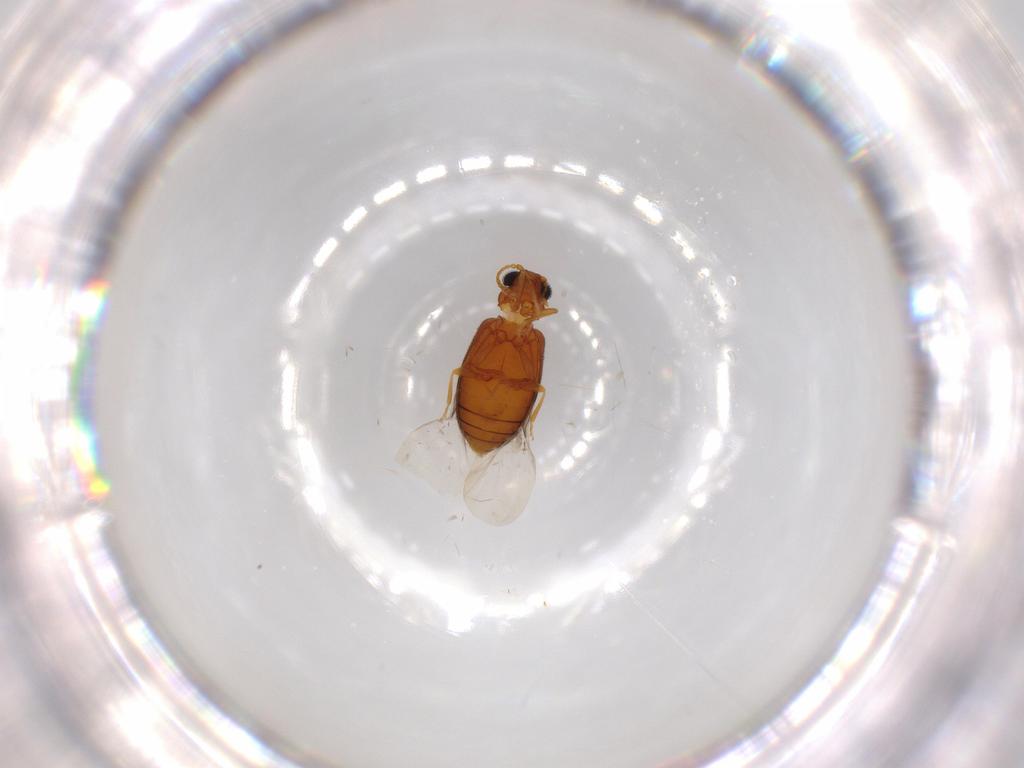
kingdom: Animalia
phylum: Arthropoda
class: Insecta
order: Coleoptera
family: Aderidae
